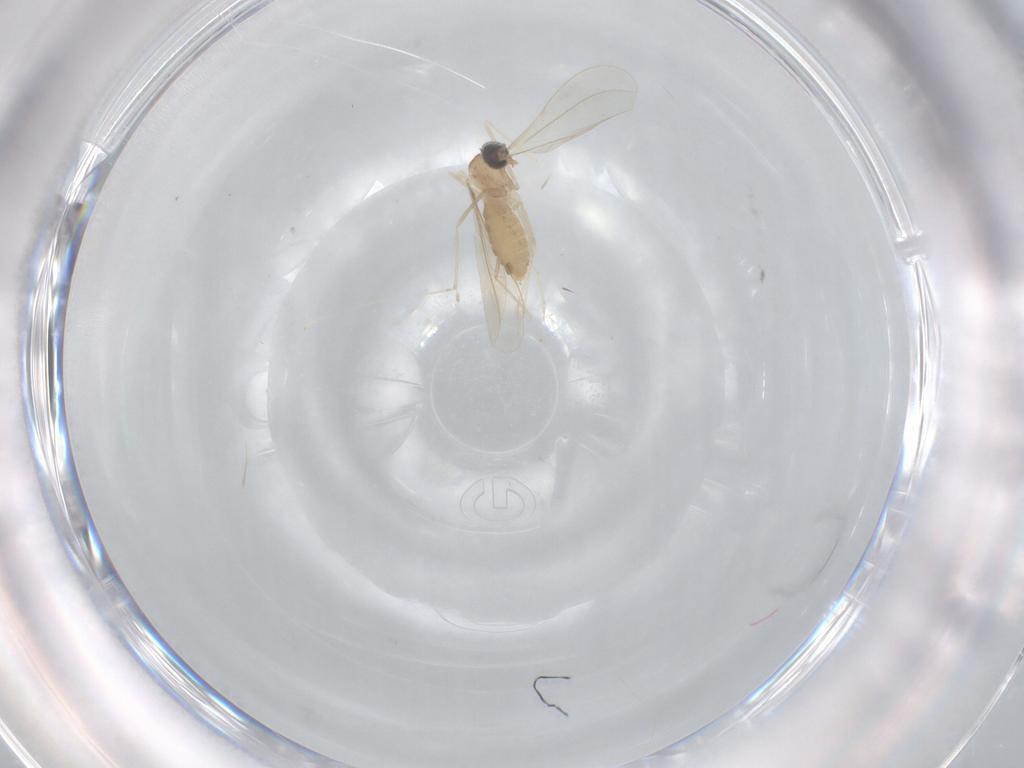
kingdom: Animalia
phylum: Arthropoda
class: Insecta
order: Diptera
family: Cecidomyiidae
